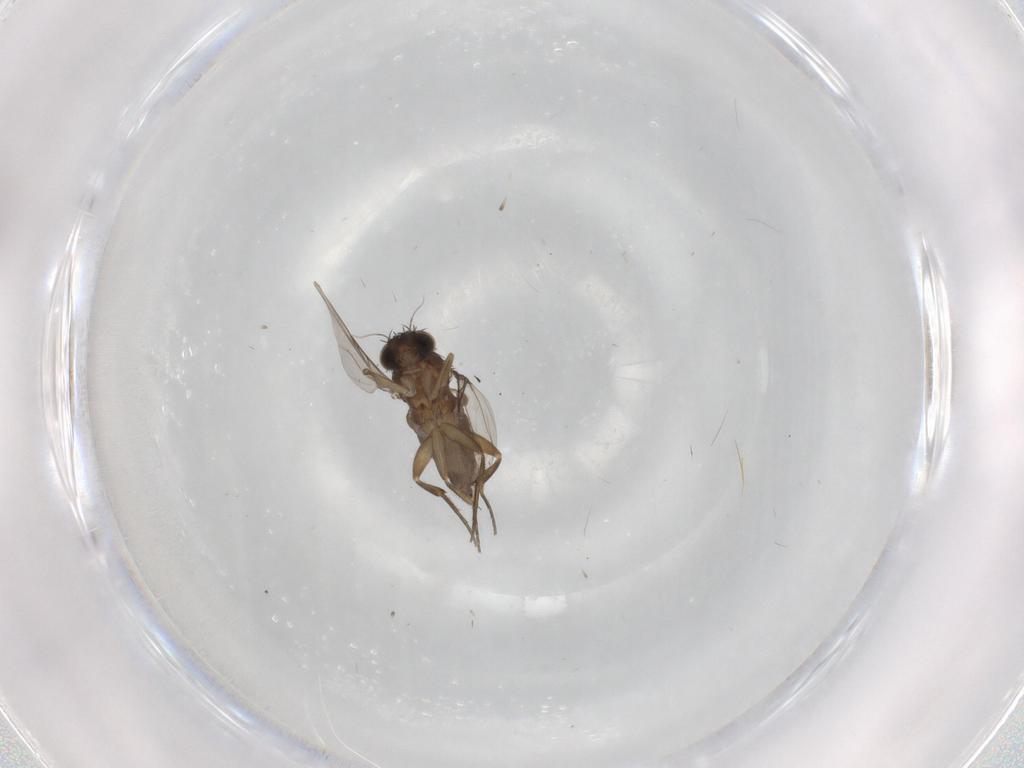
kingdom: Animalia
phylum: Arthropoda
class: Insecta
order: Diptera
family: Phoridae
